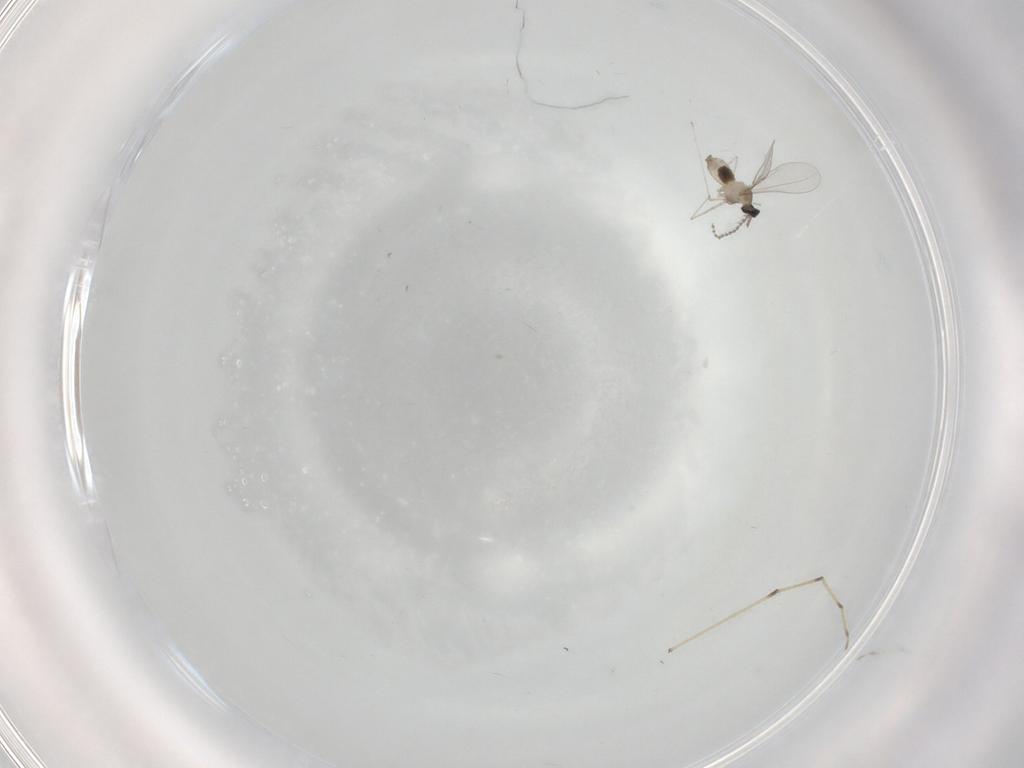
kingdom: Animalia
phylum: Arthropoda
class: Insecta
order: Diptera
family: Cecidomyiidae
